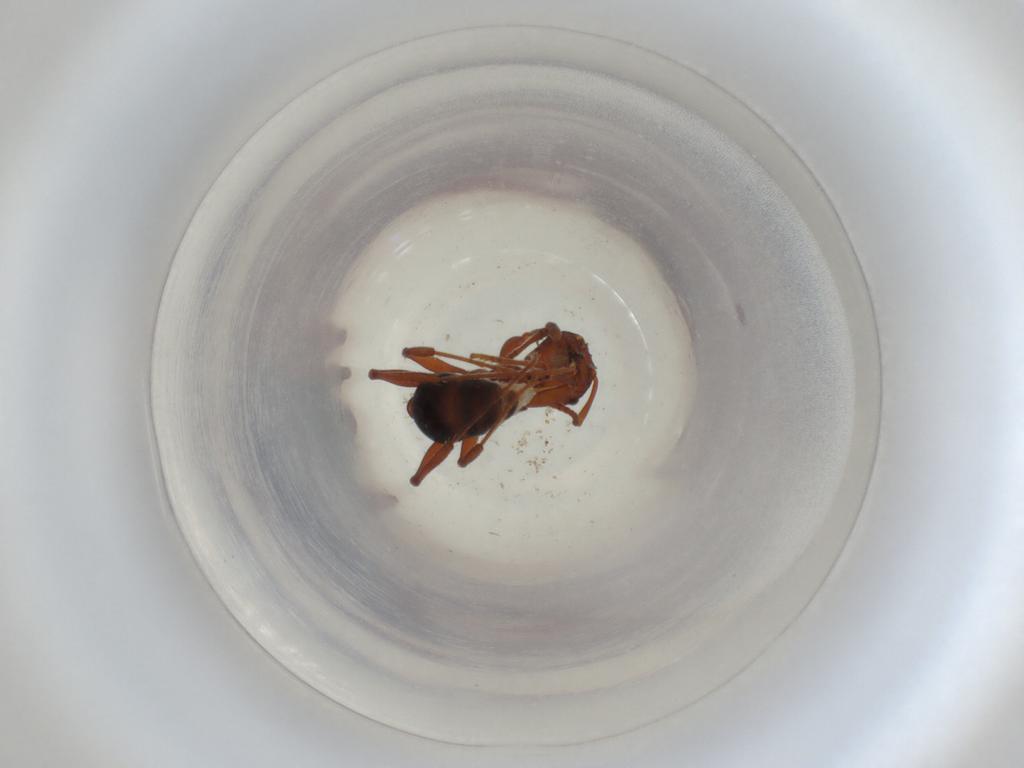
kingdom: Animalia
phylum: Arthropoda
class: Insecta
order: Hymenoptera
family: Formicidae
